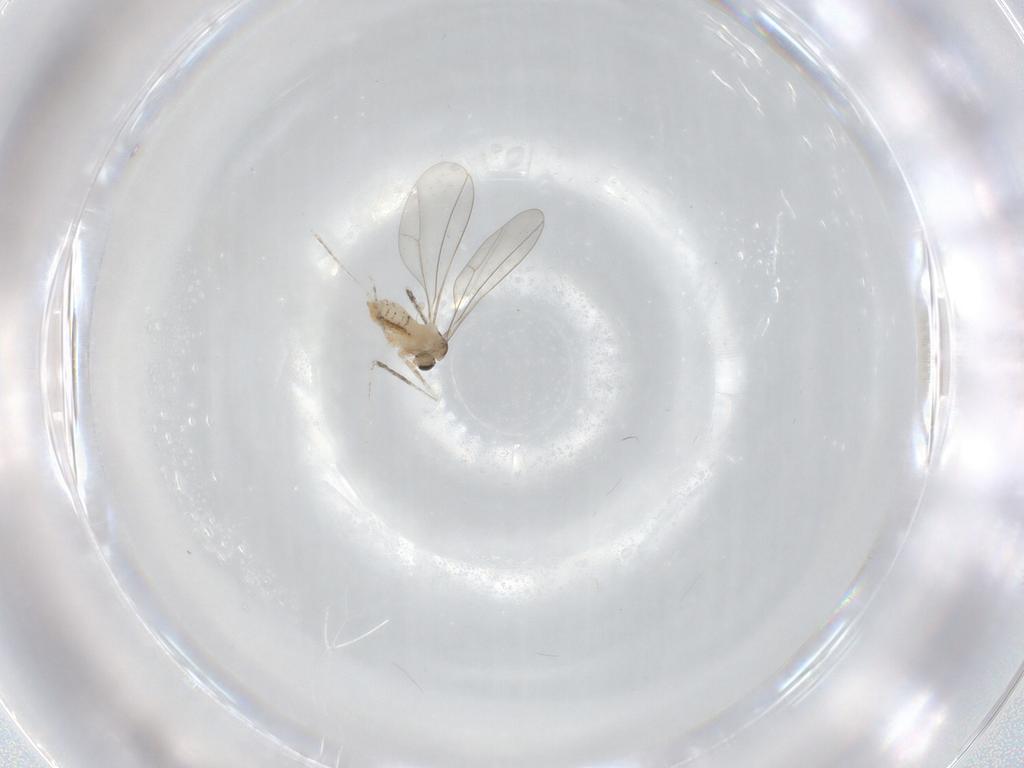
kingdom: Animalia
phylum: Arthropoda
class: Insecta
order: Diptera
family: Cecidomyiidae
